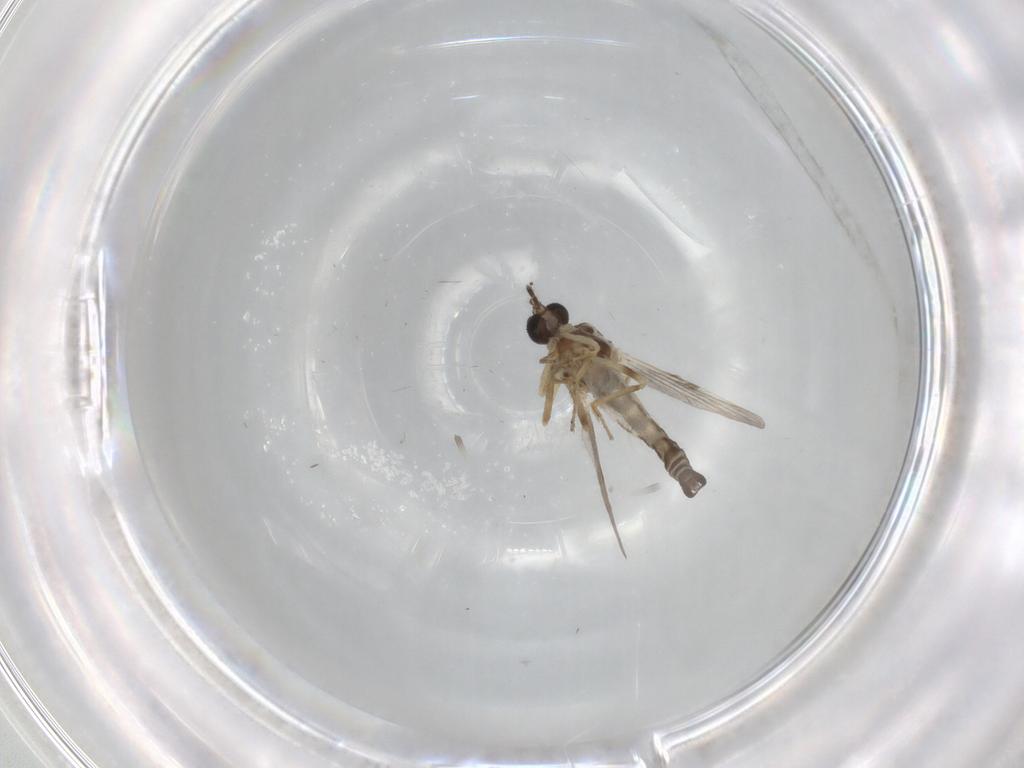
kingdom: Animalia
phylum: Arthropoda
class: Insecta
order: Diptera
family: Ceratopogonidae
